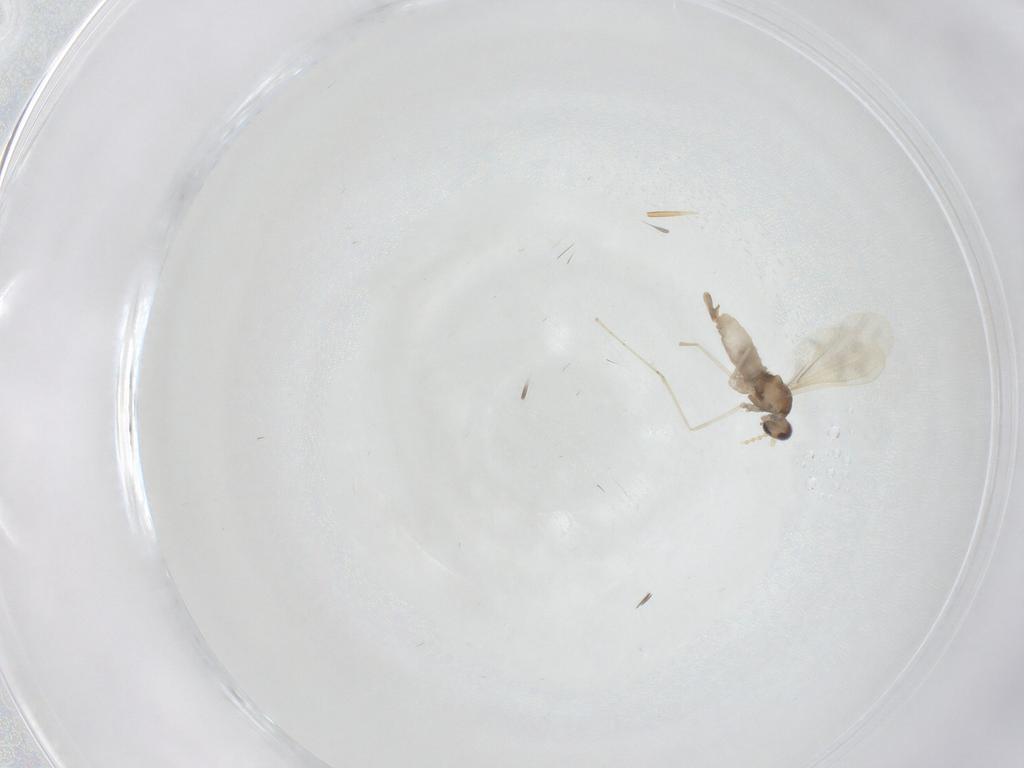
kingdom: Animalia
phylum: Arthropoda
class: Insecta
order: Diptera
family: Cecidomyiidae
